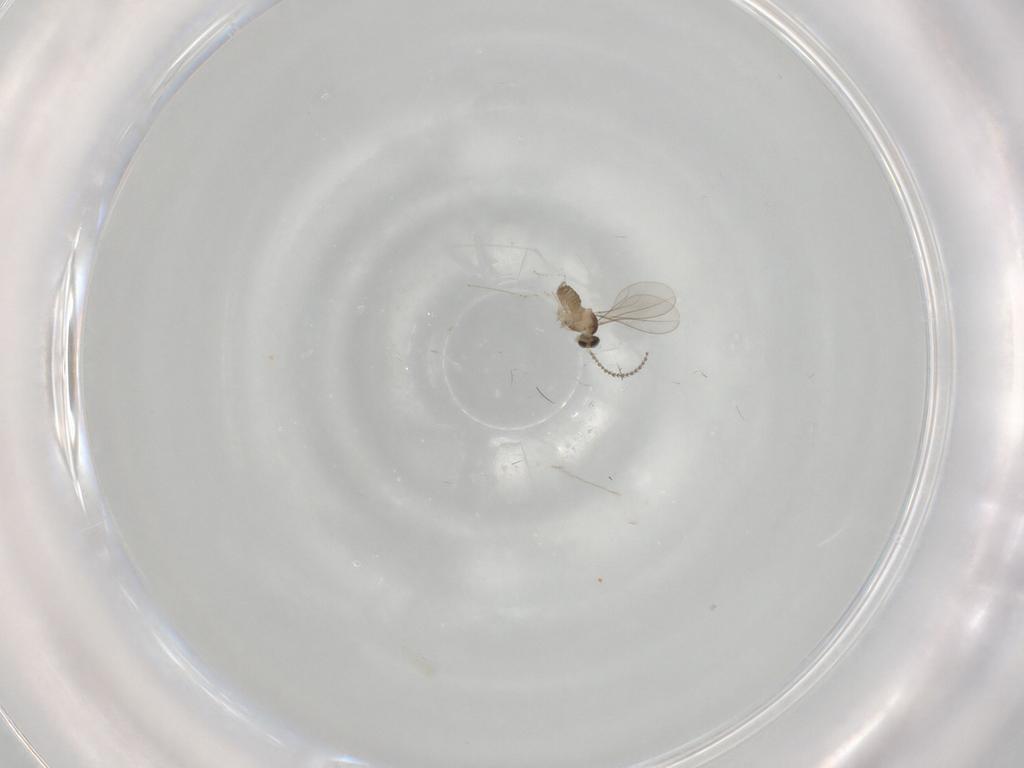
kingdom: Animalia
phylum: Arthropoda
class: Insecta
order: Diptera
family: Cecidomyiidae
